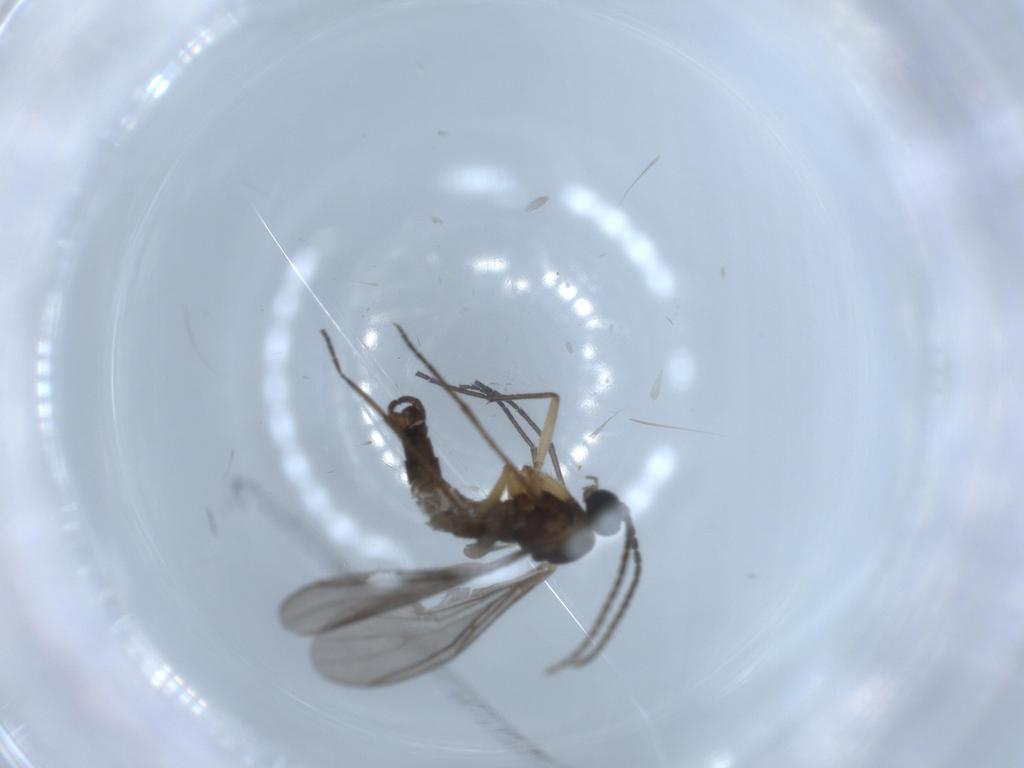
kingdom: Animalia
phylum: Arthropoda
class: Insecta
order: Diptera
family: Sciaridae
